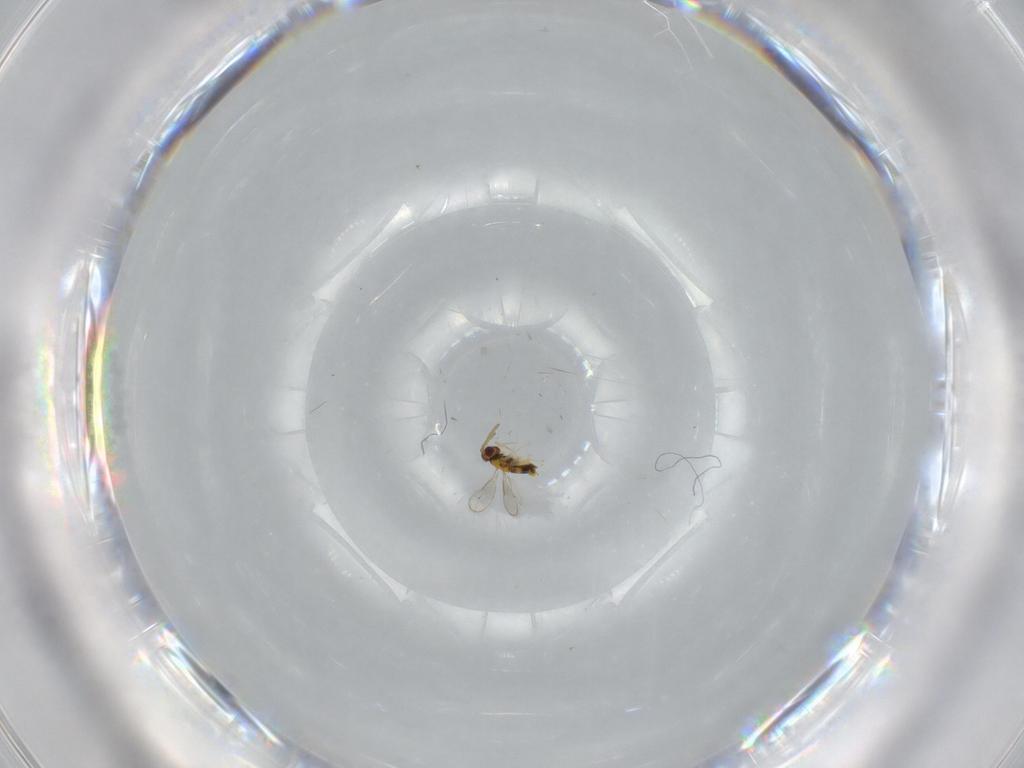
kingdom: Animalia
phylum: Arthropoda
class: Insecta
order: Hymenoptera
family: Aphelinidae
